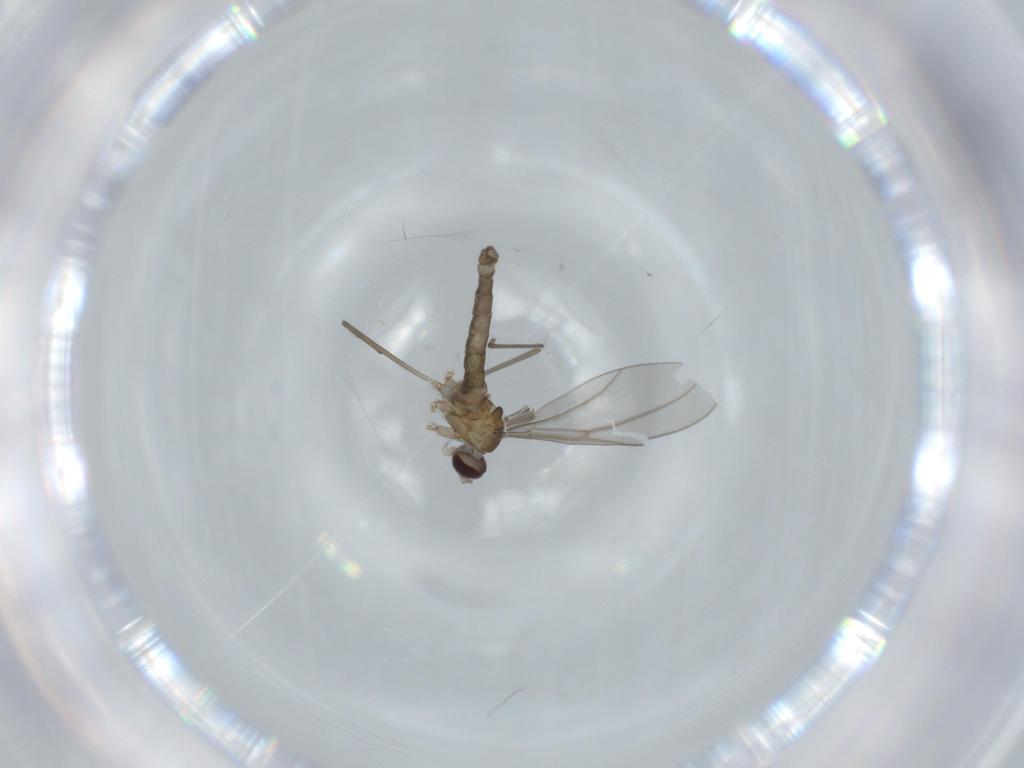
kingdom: Animalia
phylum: Arthropoda
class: Insecta
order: Diptera
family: Cecidomyiidae
